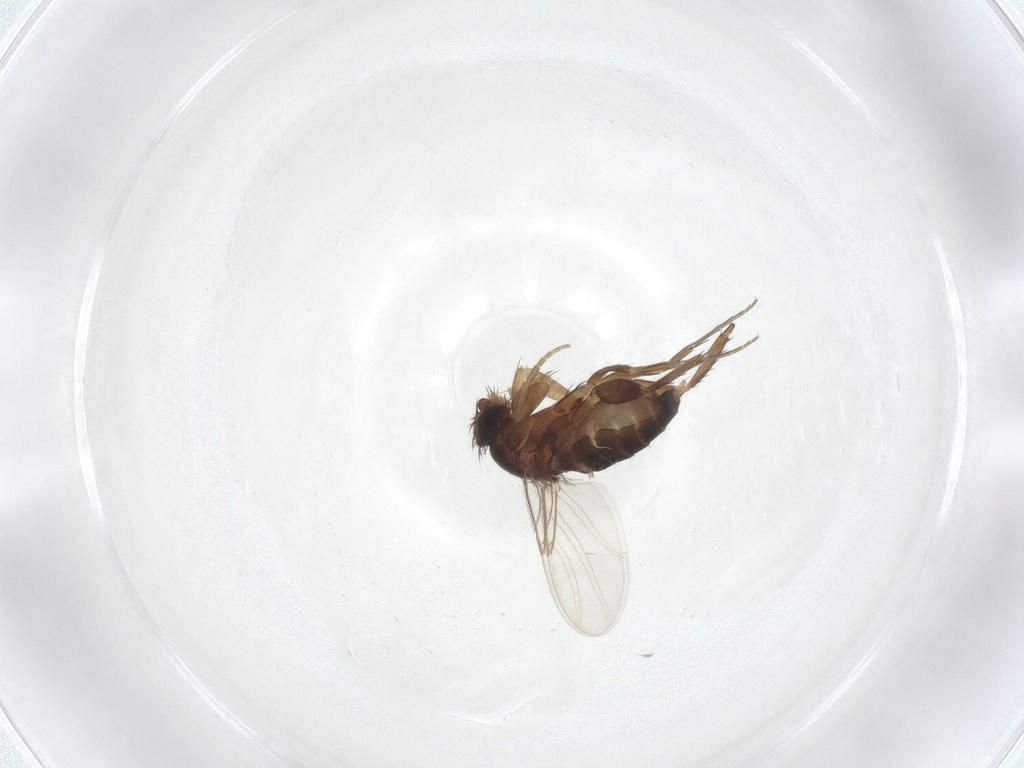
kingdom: Animalia
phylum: Arthropoda
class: Insecta
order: Diptera
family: Phoridae
